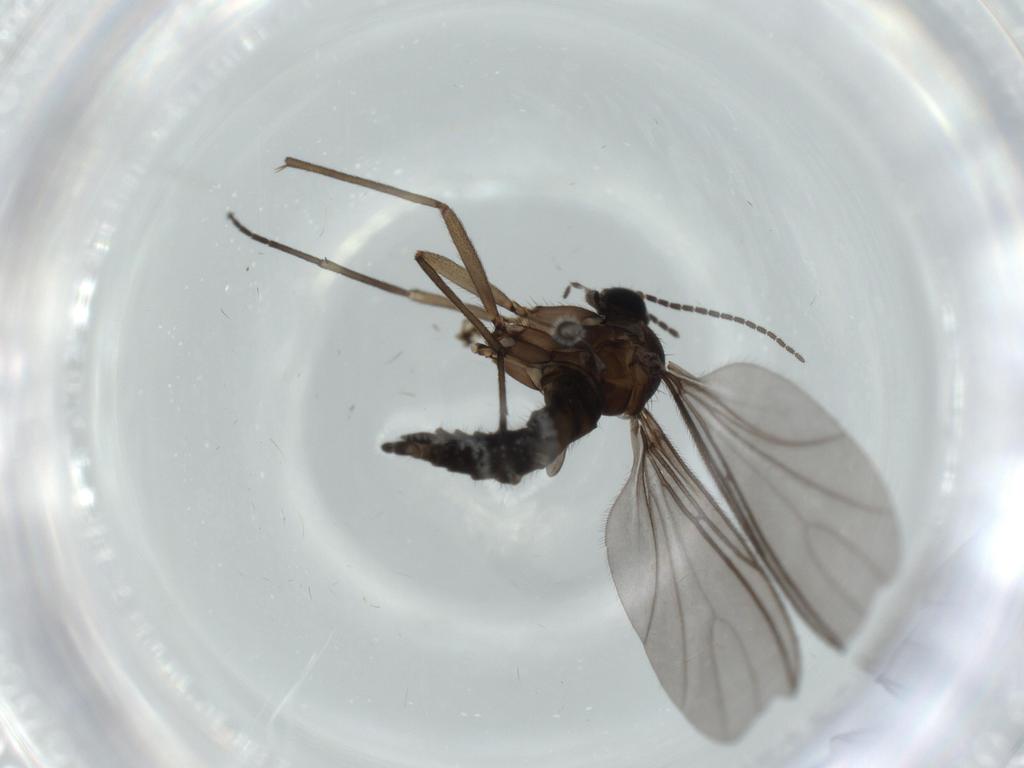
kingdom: Animalia
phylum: Arthropoda
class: Insecta
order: Diptera
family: Sciaridae
